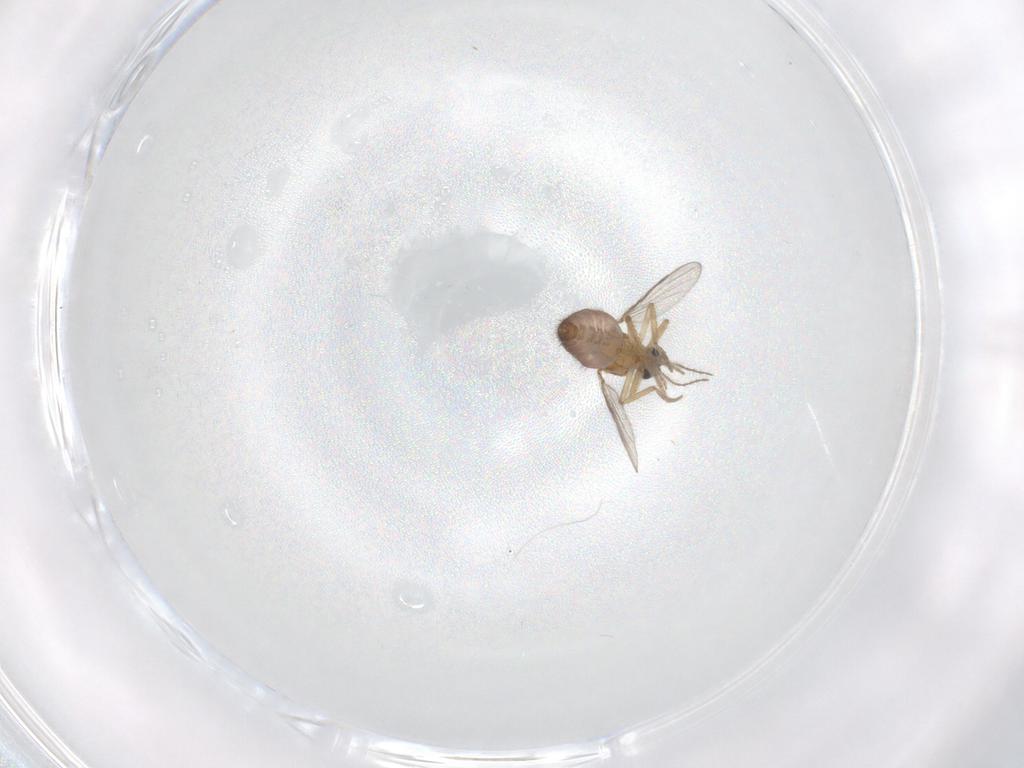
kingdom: Animalia
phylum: Arthropoda
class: Insecta
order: Diptera
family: Ceratopogonidae
